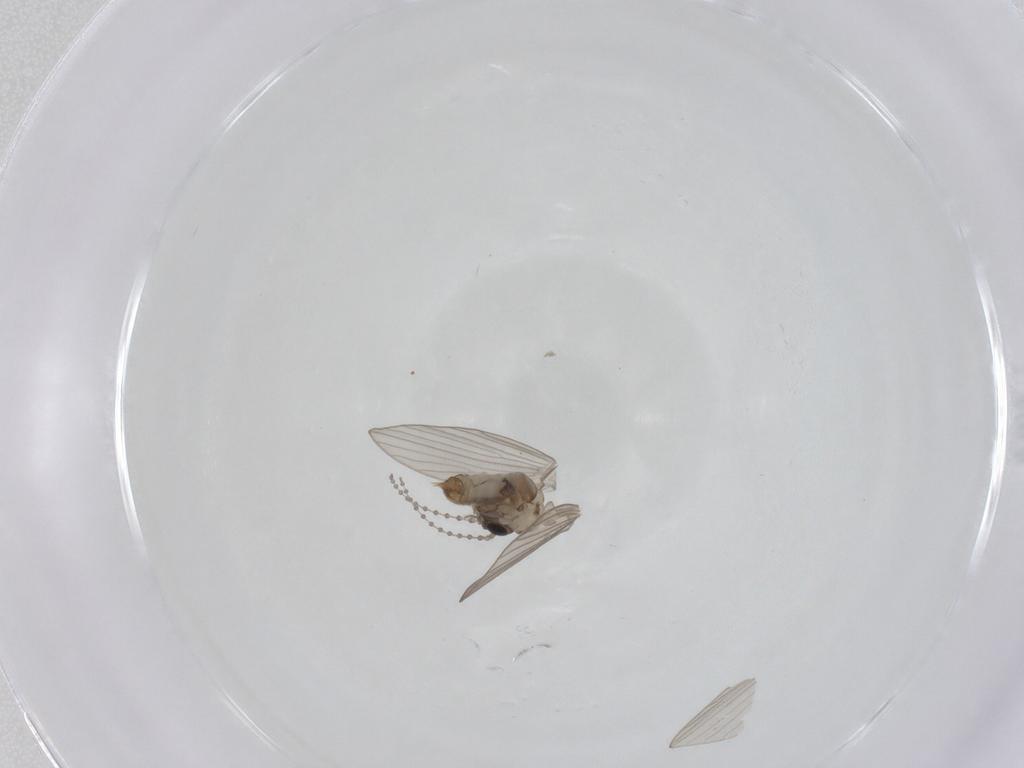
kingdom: Animalia
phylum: Arthropoda
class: Insecta
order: Diptera
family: Psychodidae
